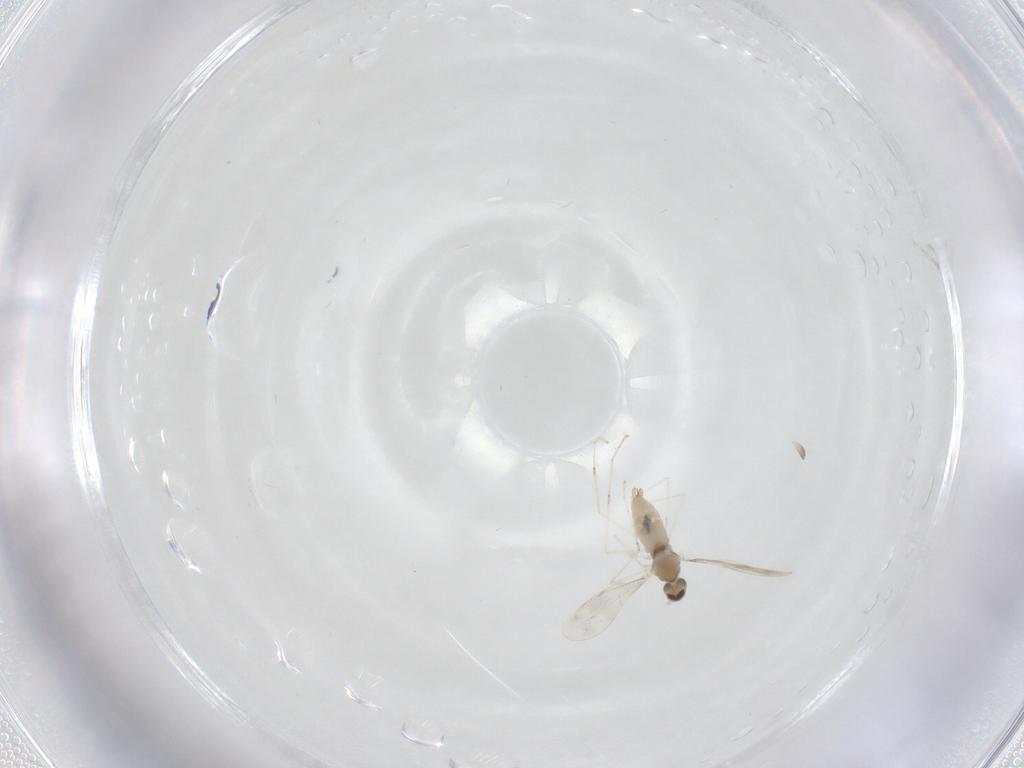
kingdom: Animalia
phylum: Arthropoda
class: Insecta
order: Diptera
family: Cecidomyiidae
